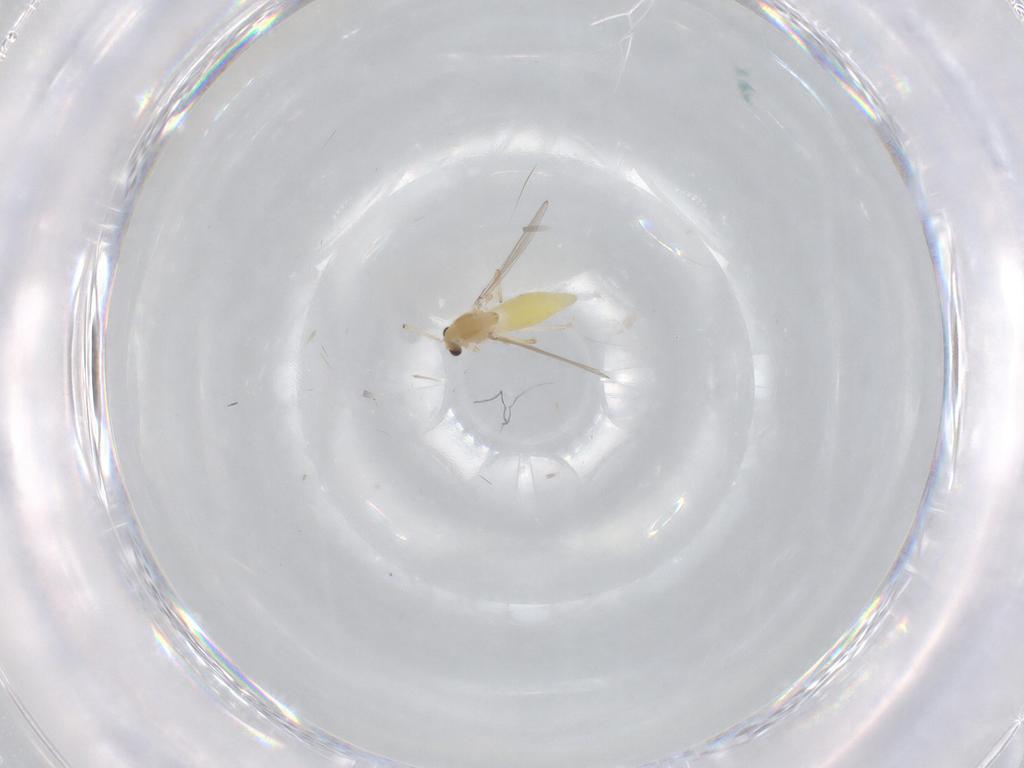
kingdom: Animalia
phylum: Arthropoda
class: Insecta
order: Diptera
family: Chironomidae
